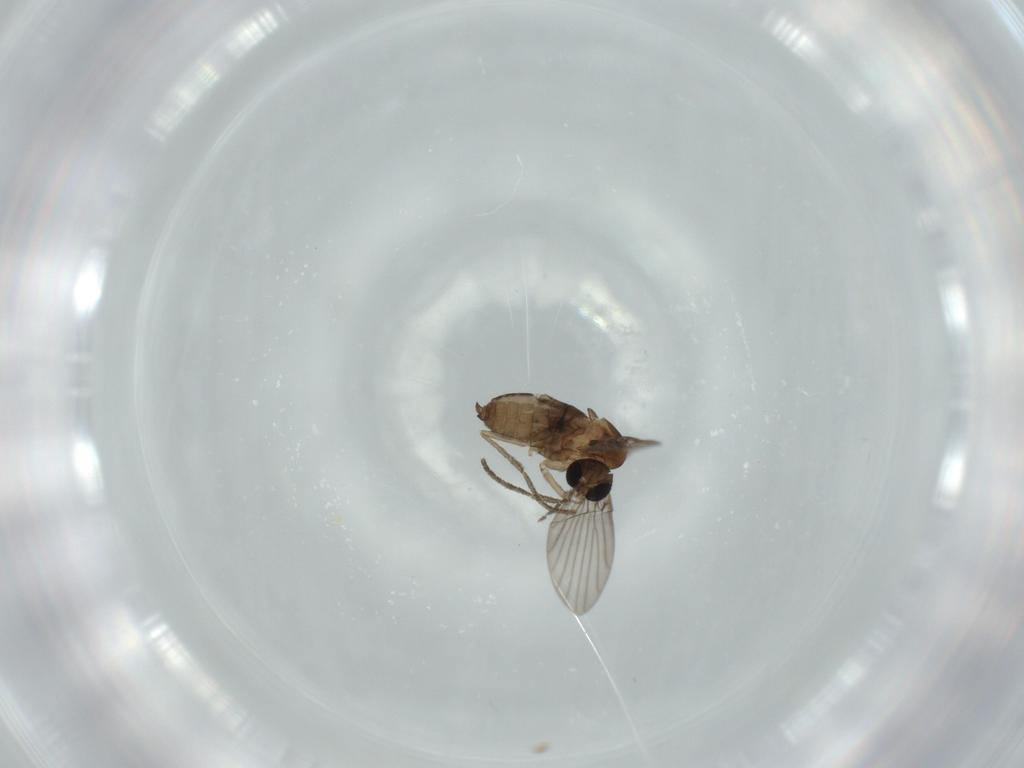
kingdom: Animalia
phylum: Arthropoda
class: Insecta
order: Diptera
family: Psychodidae
